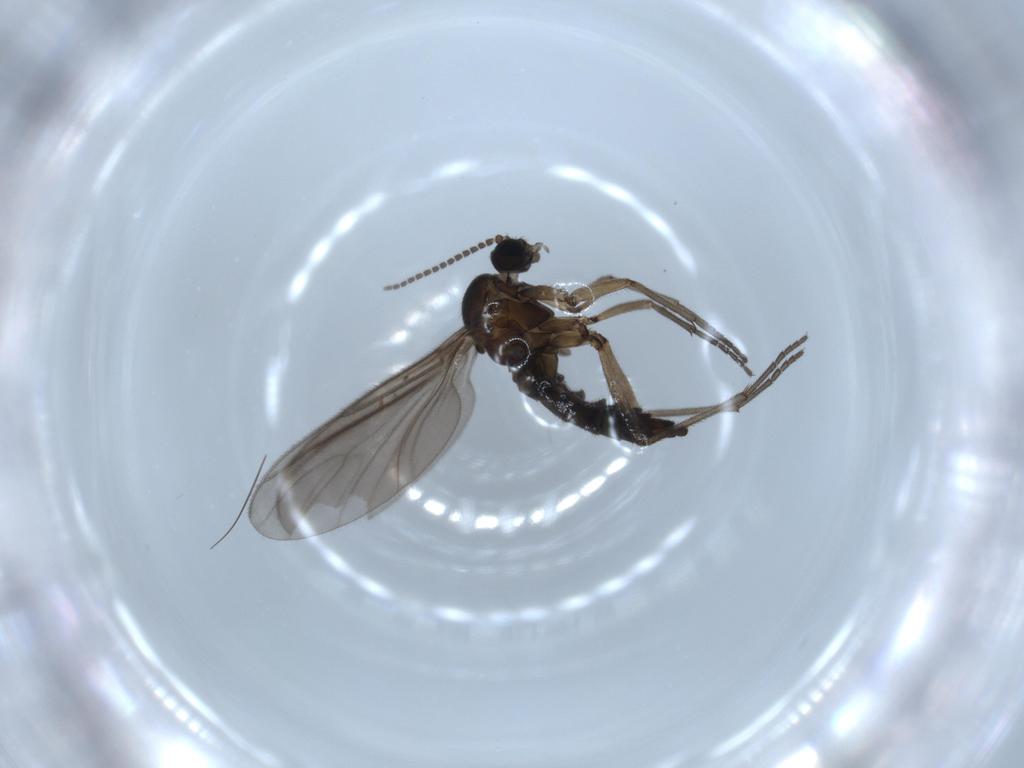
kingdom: Animalia
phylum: Arthropoda
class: Insecta
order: Diptera
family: Sciaridae
